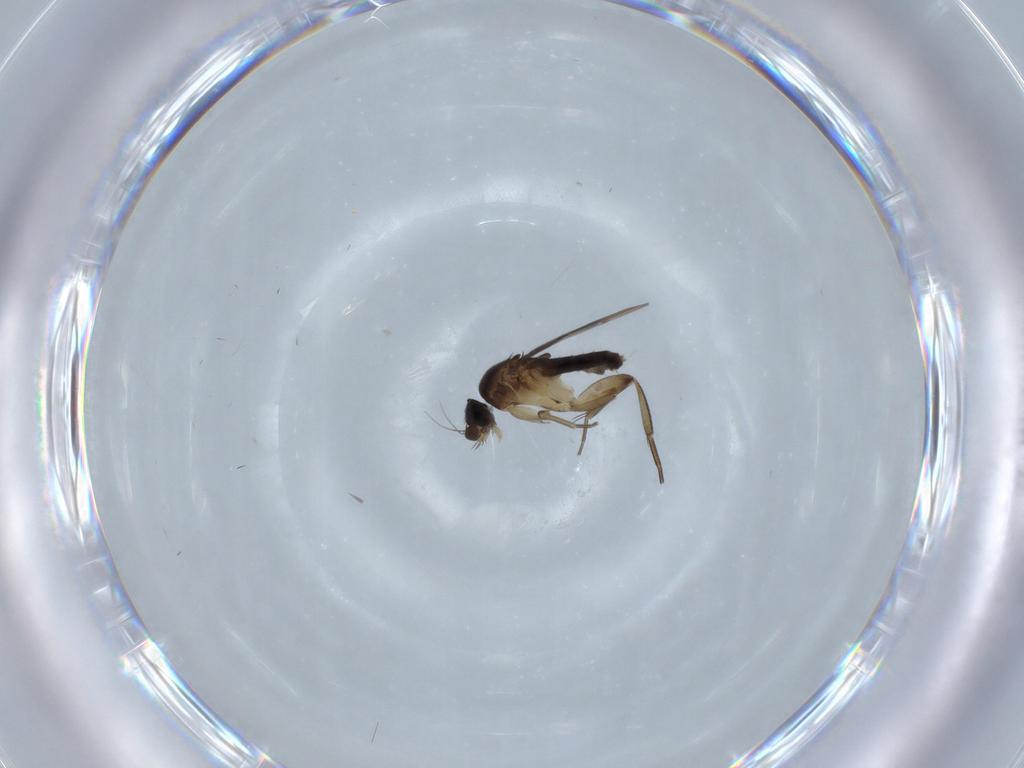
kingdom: Animalia
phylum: Arthropoda
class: Insecta
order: Diptera
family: Phoridae
